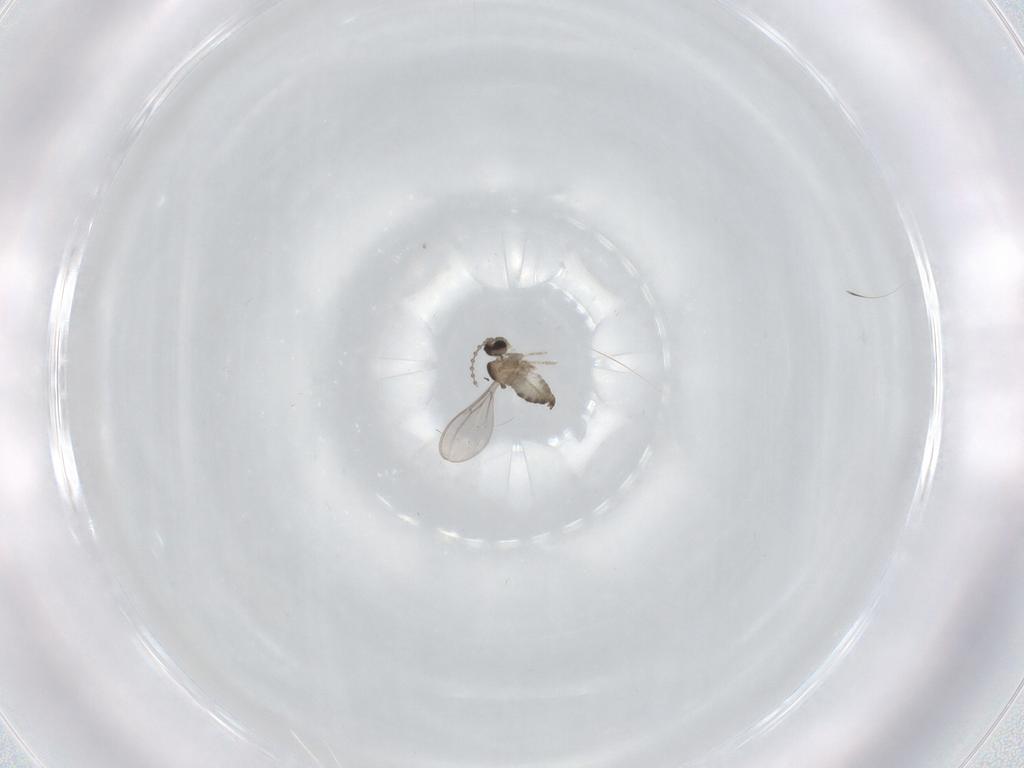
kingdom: Animalia
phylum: Arthropoda
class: Insecta
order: Diptera
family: Cecidomyiidae
